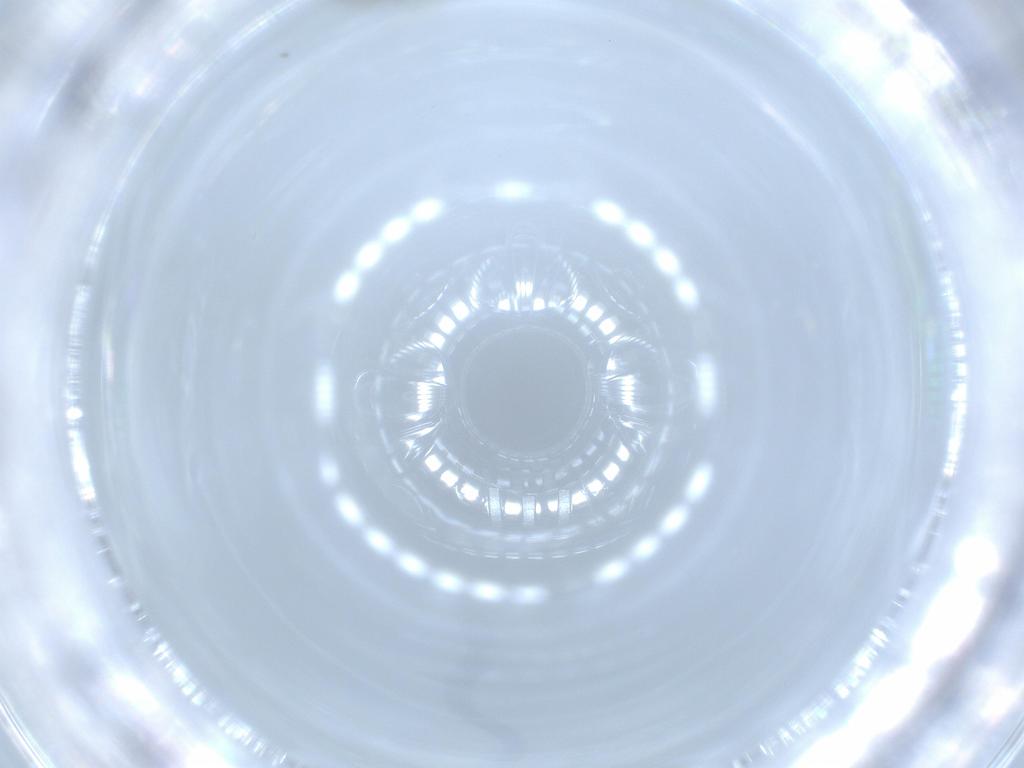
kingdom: Animalia
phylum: Arthropoda
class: Insecta
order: Diptera
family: Cecidomyiidae
